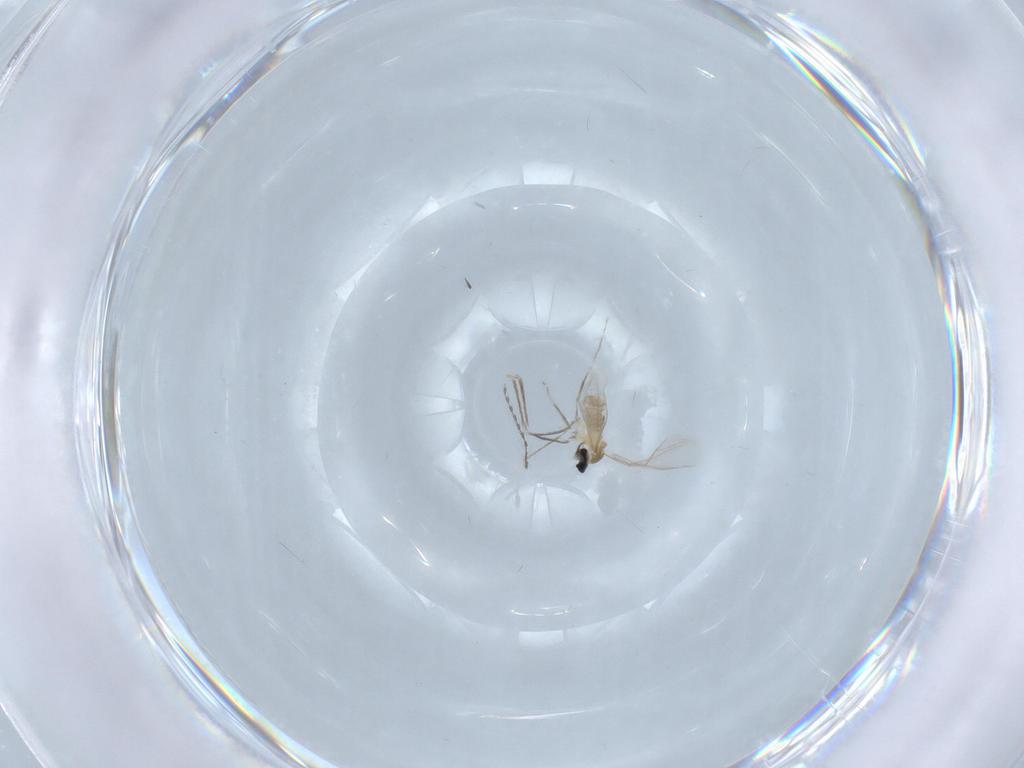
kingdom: Animalia
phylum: Arthropoda
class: Insecta
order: Diptera
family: Cecidomyiidae
